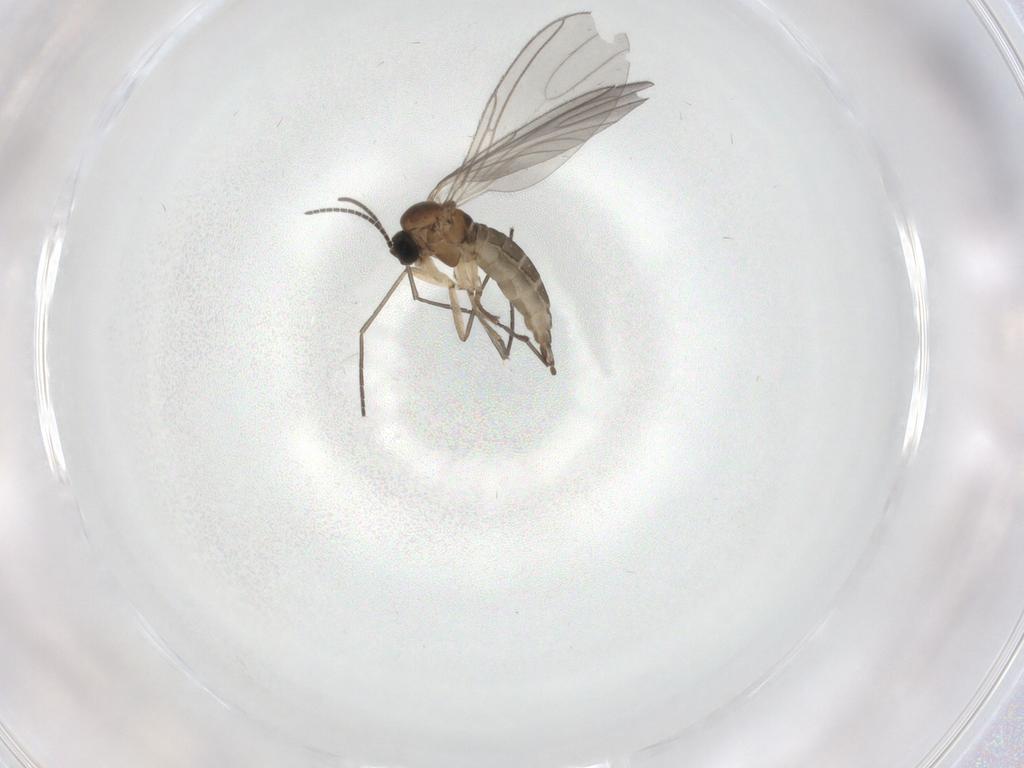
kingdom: Animalia
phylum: Arthropoda
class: Insecta
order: Diptera
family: Sciaridae
